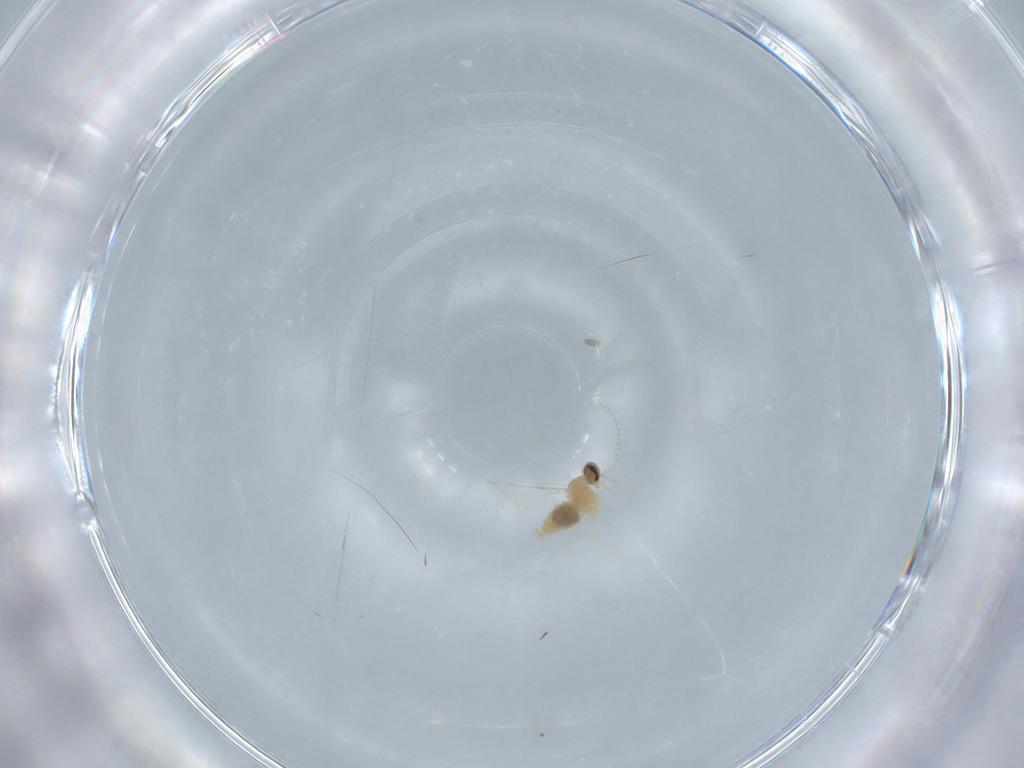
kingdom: Animalia
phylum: Arthropoda
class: Insecta
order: Diptera
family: Cecidomyiidae
